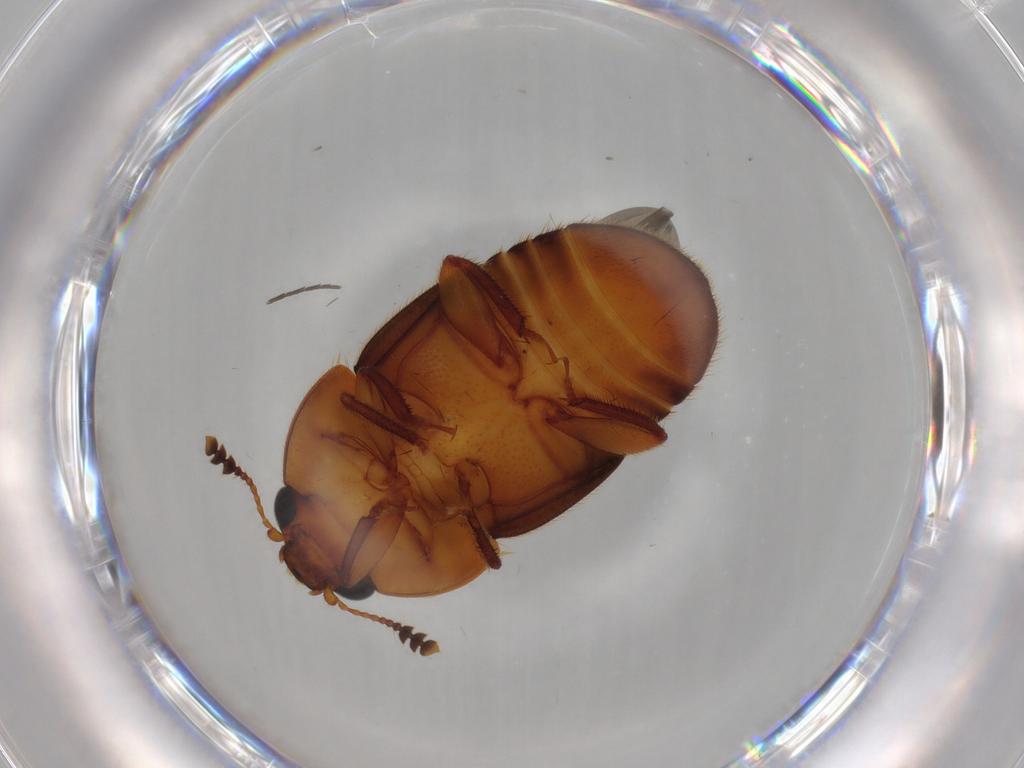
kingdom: Animalia
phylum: Arthropoda
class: Insecta
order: Coleoptera
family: Nitidulidae
